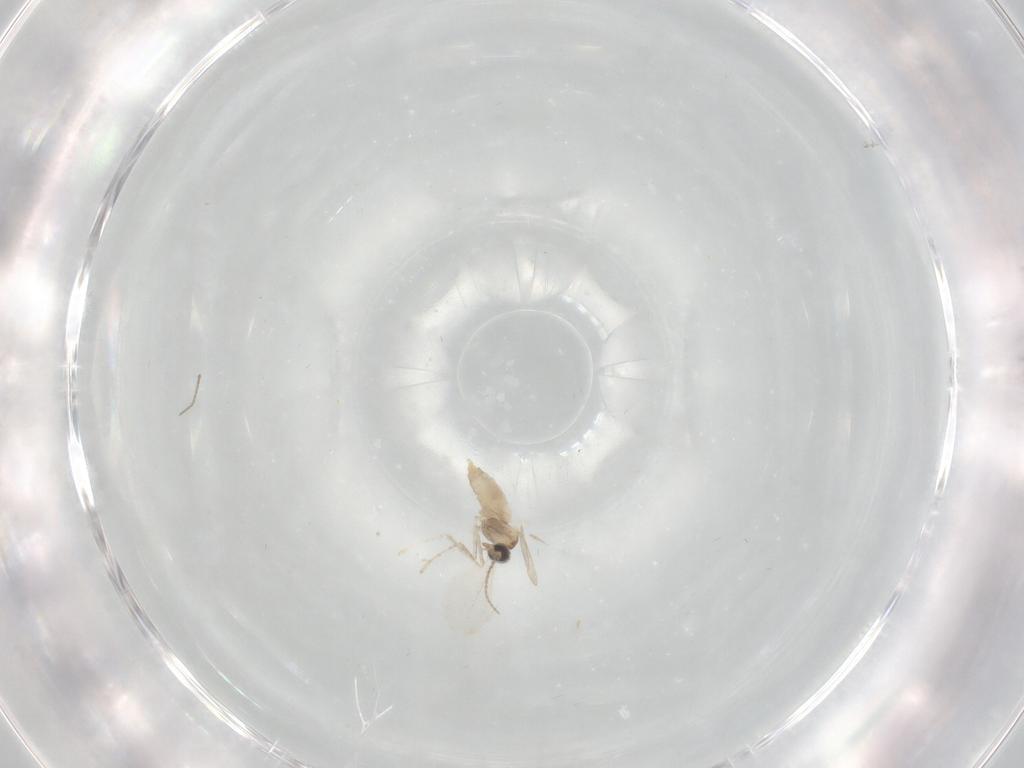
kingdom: Animalia
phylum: Arthropoda
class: Insecta
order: Diptera
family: Cecidomyiidae
